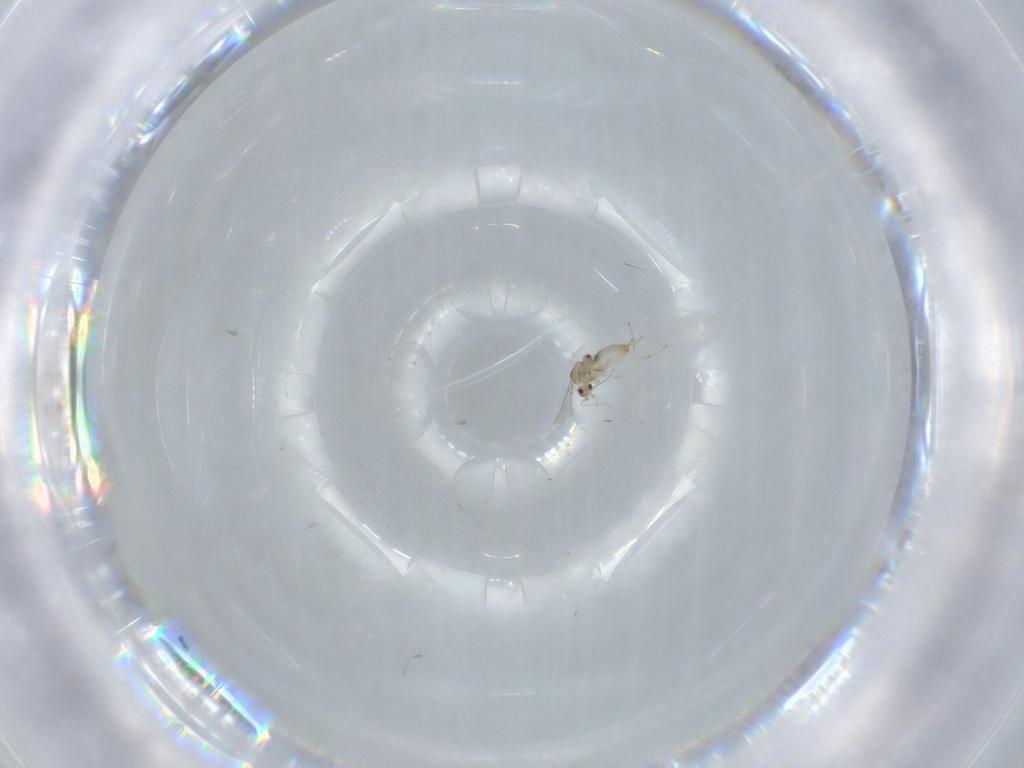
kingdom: Animalia
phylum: Arthropoda
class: Insecta
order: Diptera
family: Cecidomyiidae
